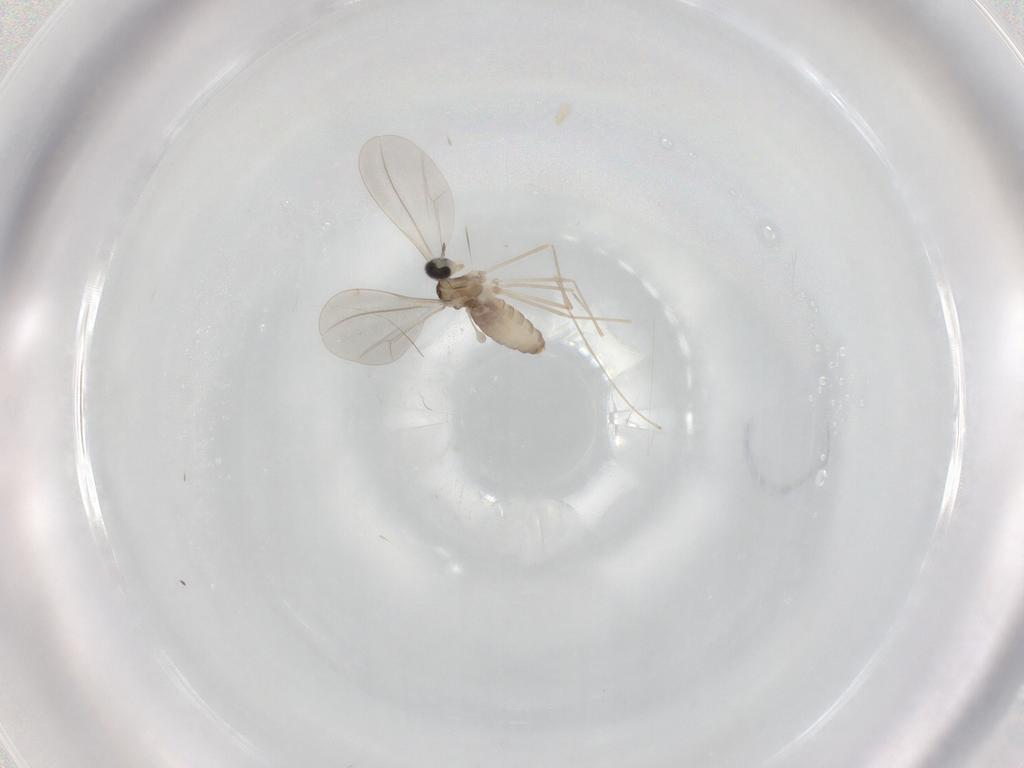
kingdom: Animalia
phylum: Arthropoda
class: Insecta
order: Diptera
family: Cecidomyiidae
